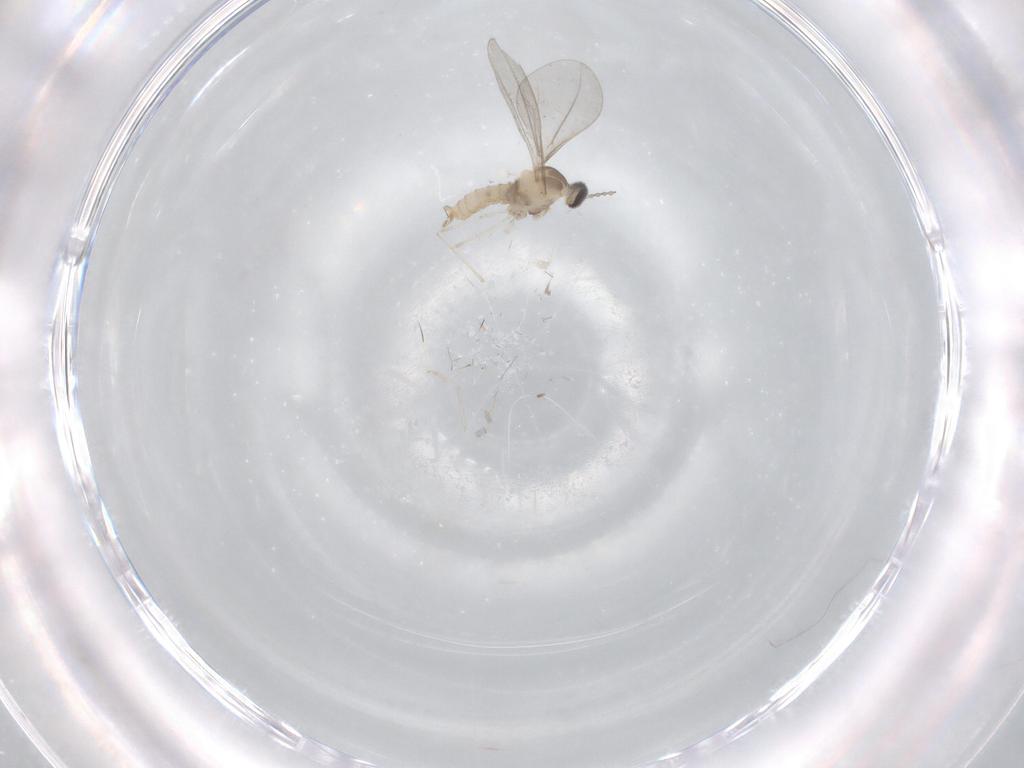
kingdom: Animalia
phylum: Arthropoda
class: Insecta
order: Diptera
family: Cecidomyiidae
